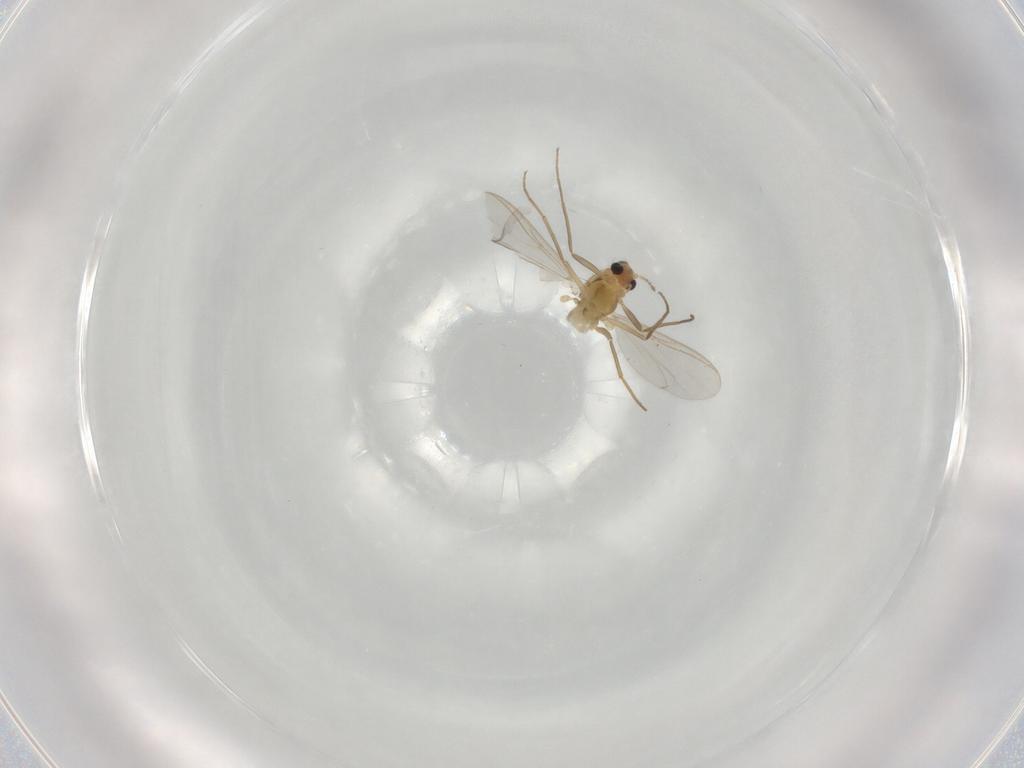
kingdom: Animalia
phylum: Arthropoda
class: Insecta
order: Diptera
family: Chironomidae
